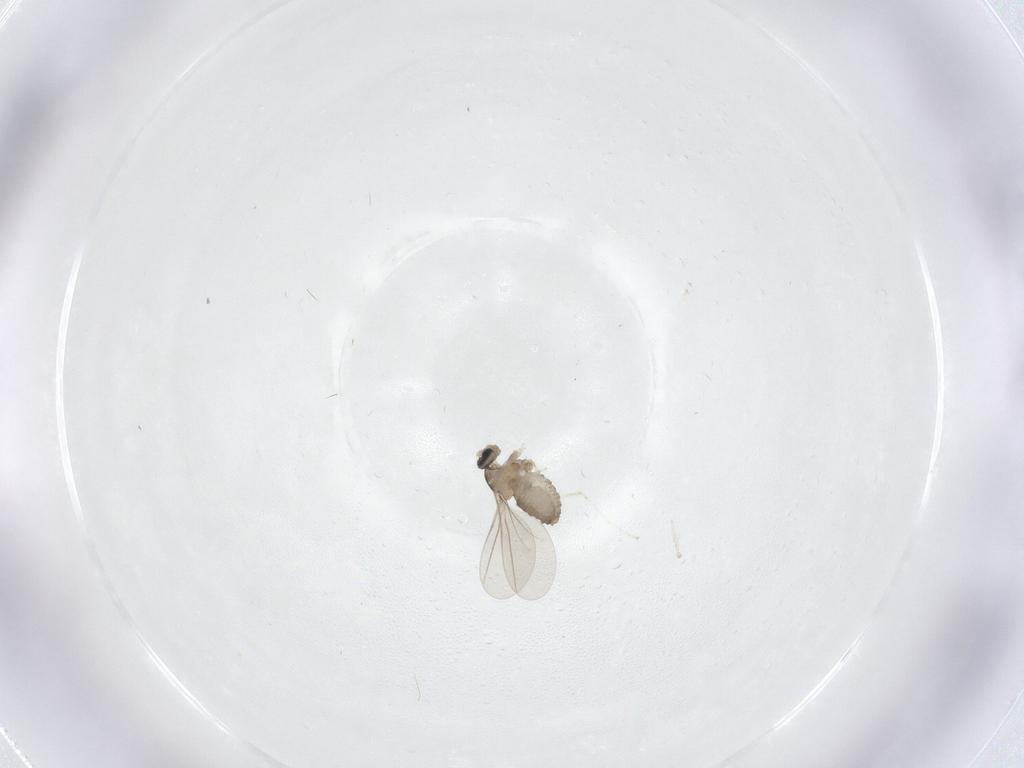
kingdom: Animalia
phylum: Arthropoda
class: Insecta
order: Diptera
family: Cecidomyiidae
